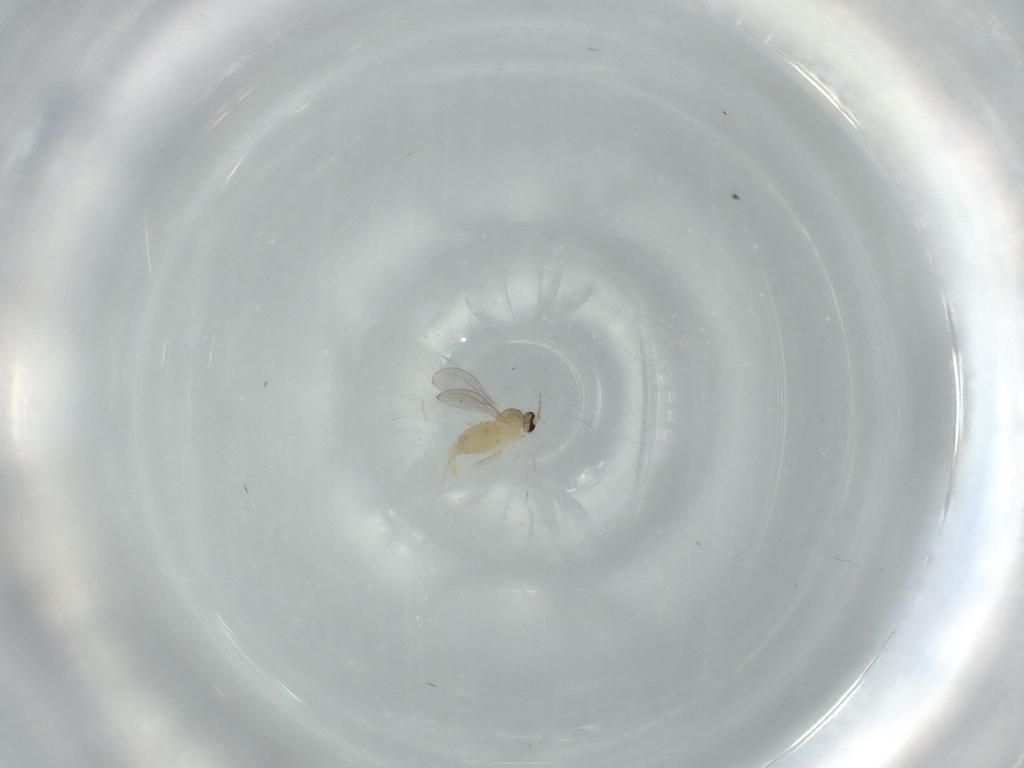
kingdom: Animalia
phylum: Arthropoda
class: Insecta
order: Diptera
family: Cecidomyiidae
